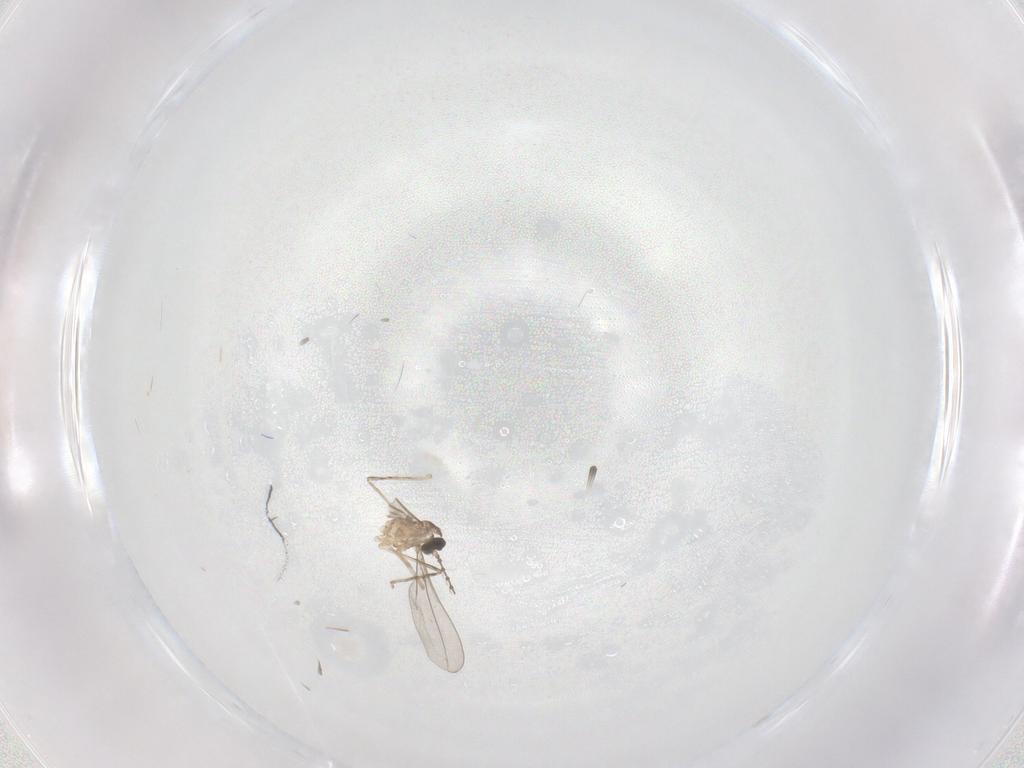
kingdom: Animalia
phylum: Arthropoda
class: Insecta
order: Diptera
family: Cecidomyiidae
